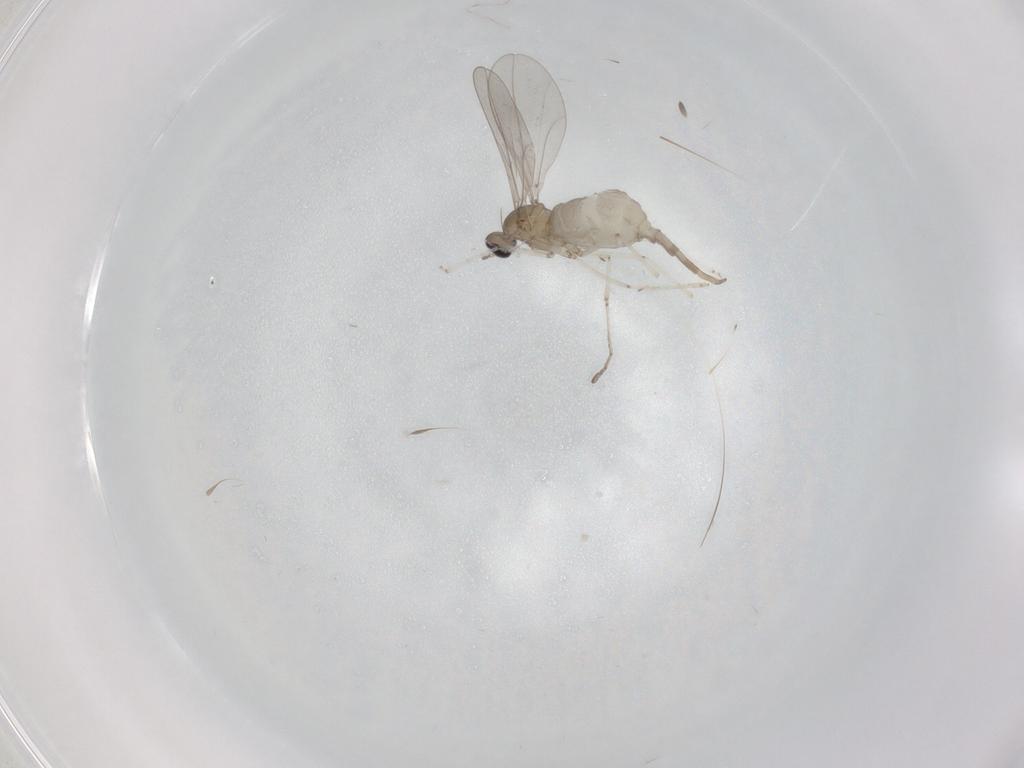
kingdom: Animalia
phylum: Arthropoda
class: Insecta
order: Diptera
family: Cecidomyiidae
